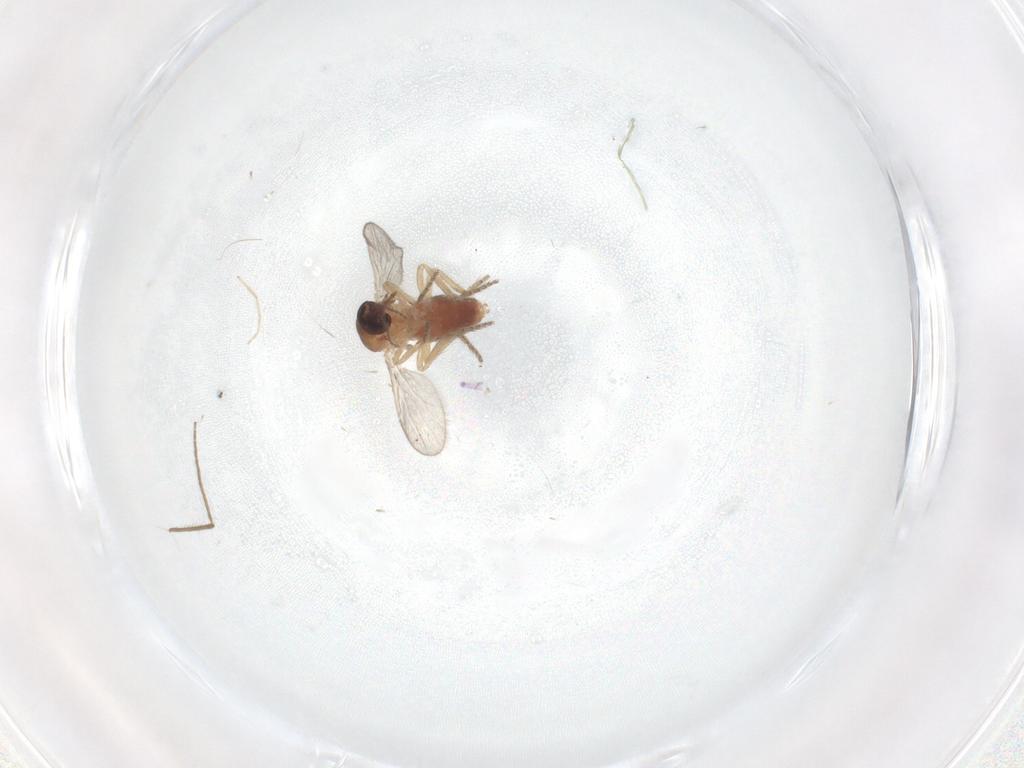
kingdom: Animalia
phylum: Arthropoda
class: Insecta
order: Diptera
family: Ceratopogonidae
